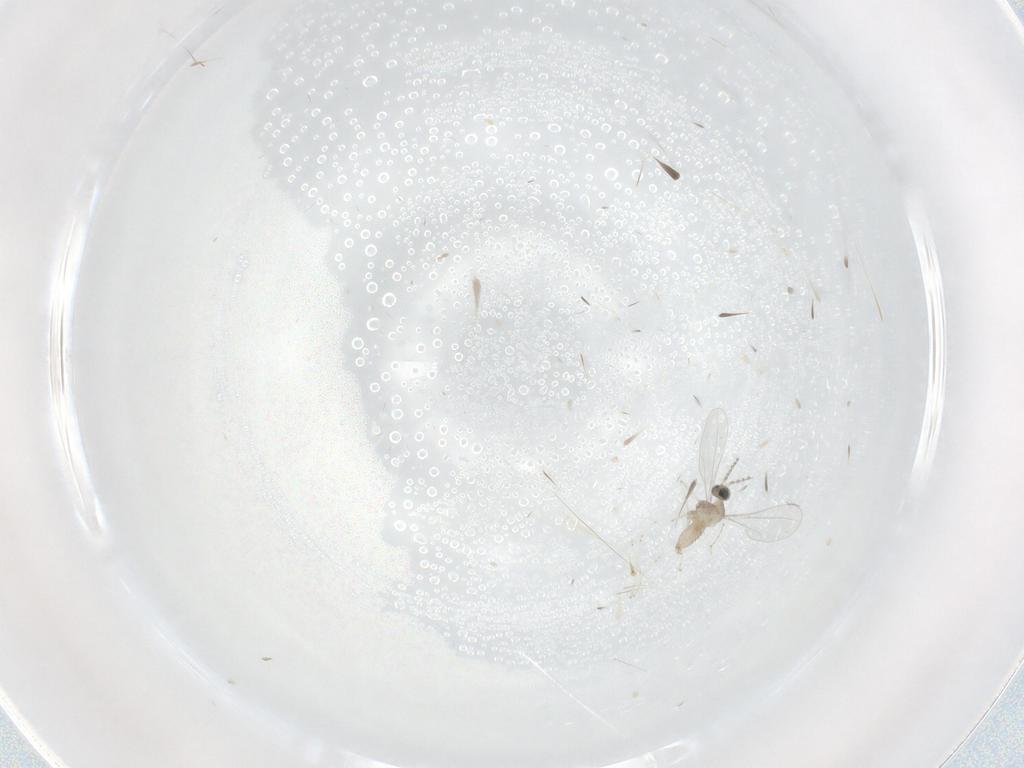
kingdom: Animalia
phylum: Arthropoda
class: Insecta
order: Diptera
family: Cecidomyiidae
